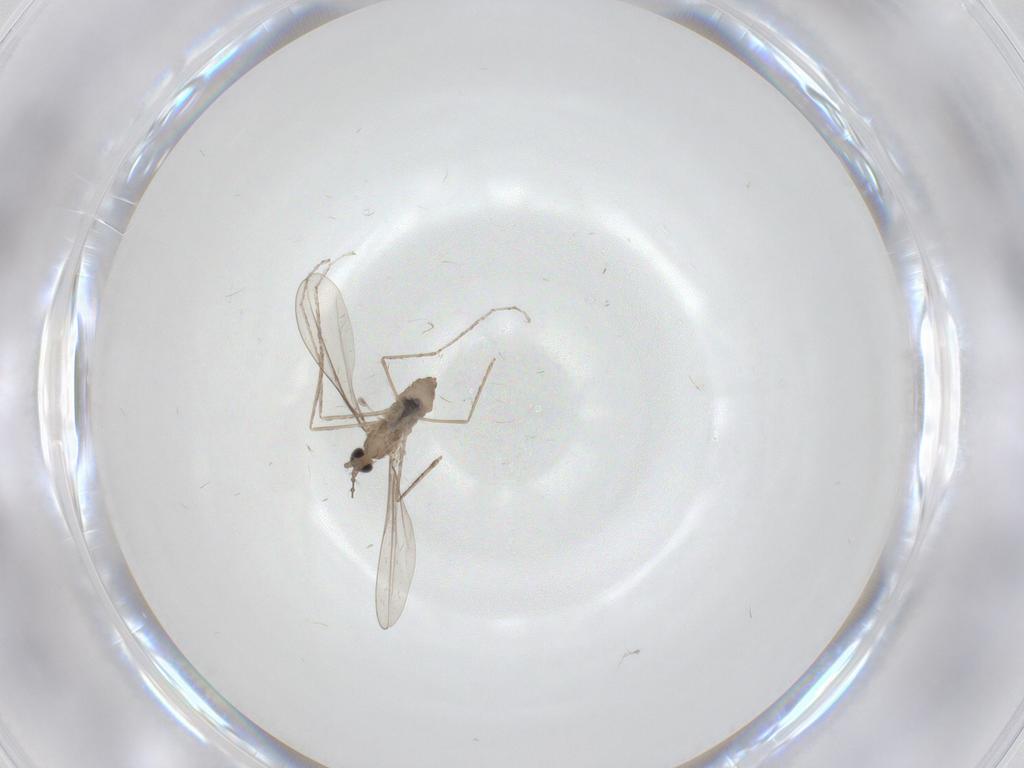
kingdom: Animalia
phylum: Arthropoda
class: Insecta
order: Diptera
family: Cecidomyiidae
